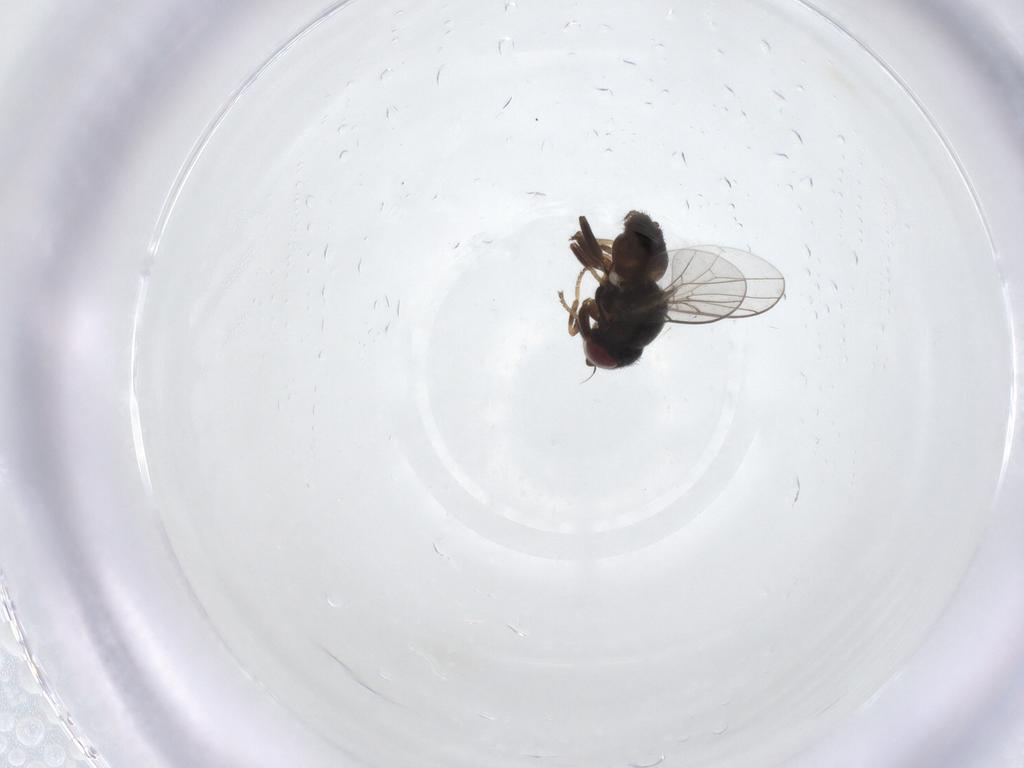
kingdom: Animalia
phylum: Arthropoda
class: Insecta
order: Diptera
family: Chloropidae
